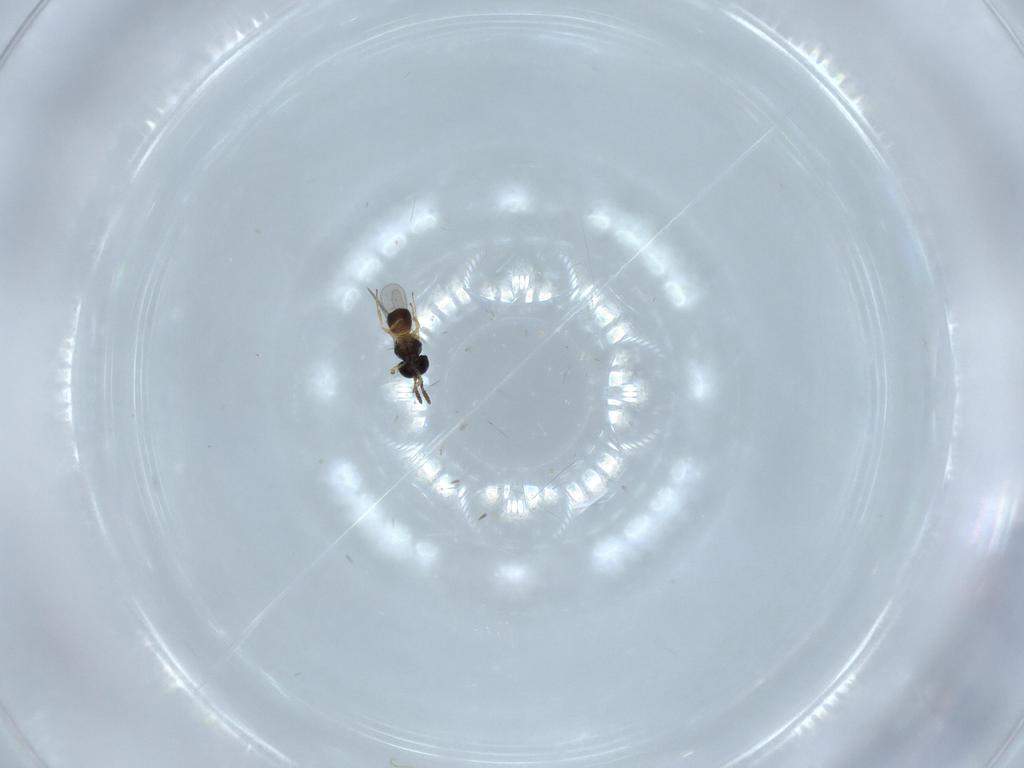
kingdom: Animalia
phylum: Arthropoda
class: Insecta
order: Hymenoptera
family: Scelionidae
